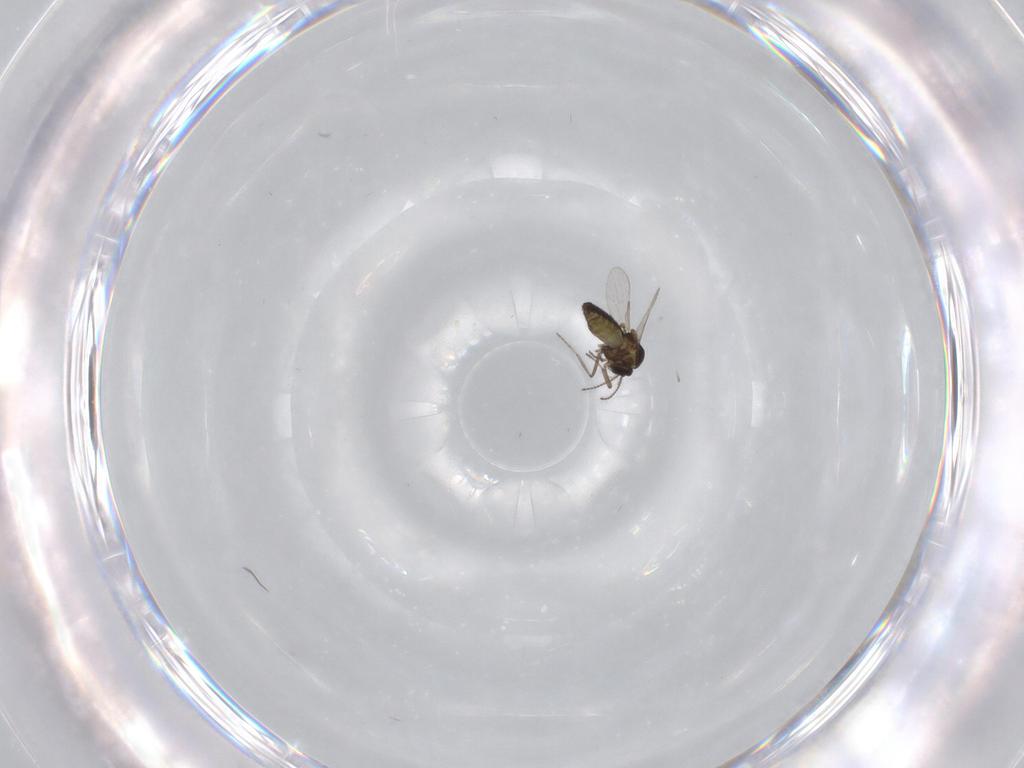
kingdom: Animalia
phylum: Arthropoda
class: Insecta
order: Diptera
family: Ceratopogonidae
